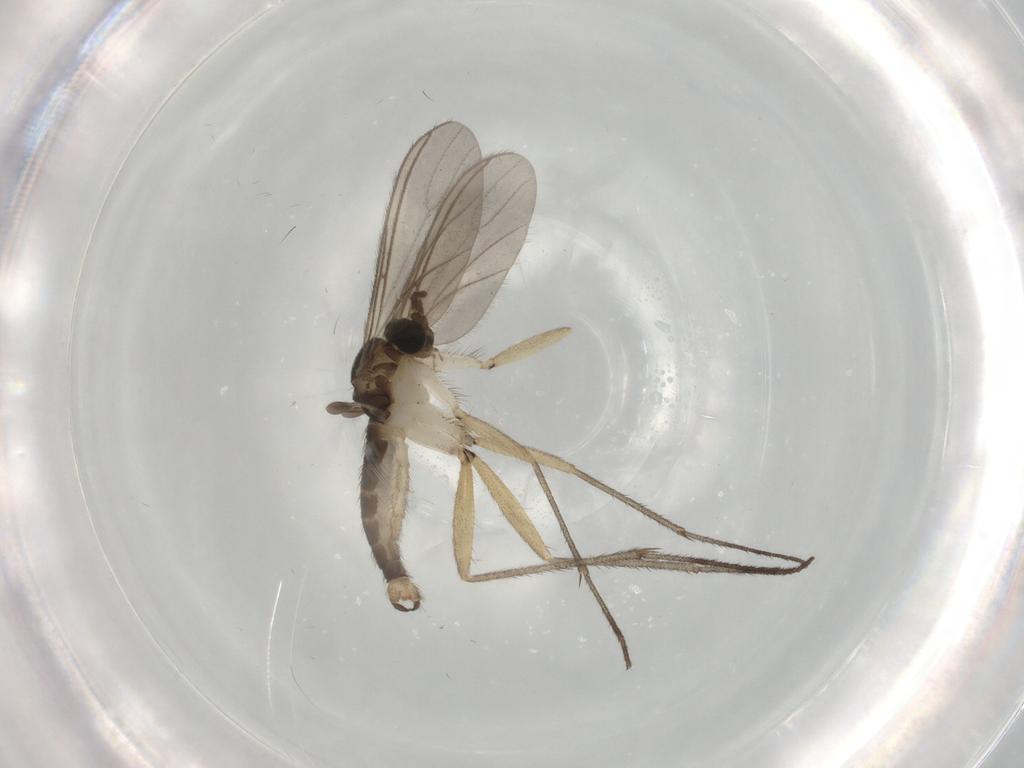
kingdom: Animalia
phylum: Arthropoda
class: Insecta
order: Diptera
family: Sciaridae
